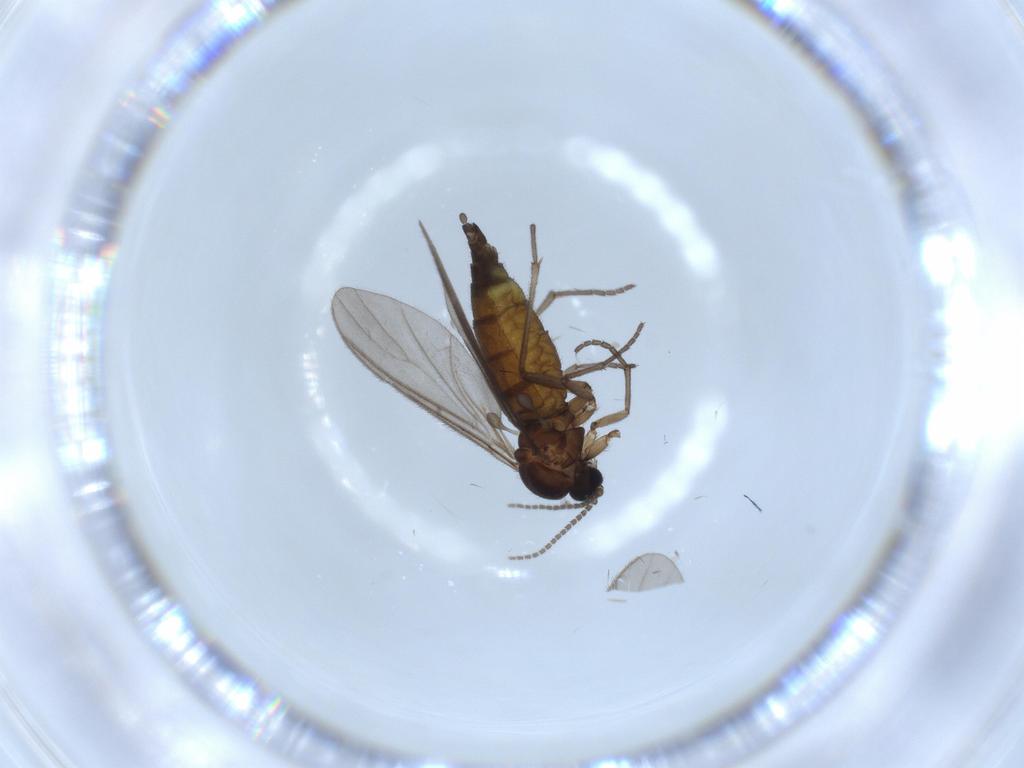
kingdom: Animalia
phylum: Arthropoda
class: Insecta
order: Diptera
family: Sciaridae
